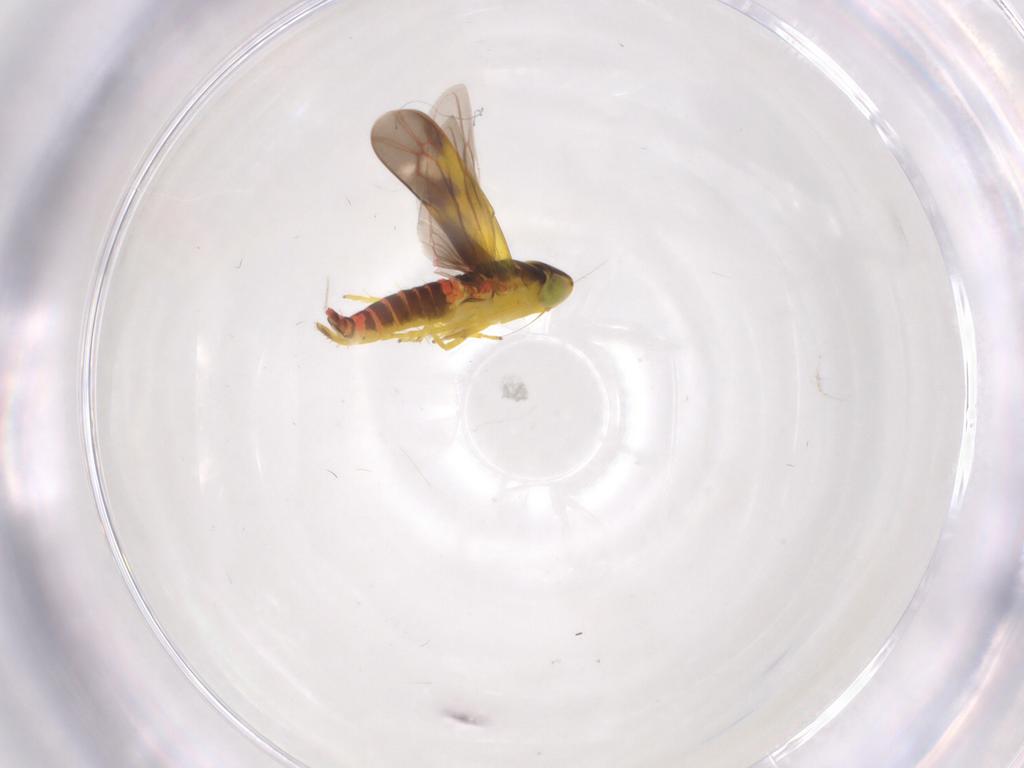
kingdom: Animalia
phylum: Arthropoda
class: Insecta
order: Hemiptera
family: Cicadellidae
